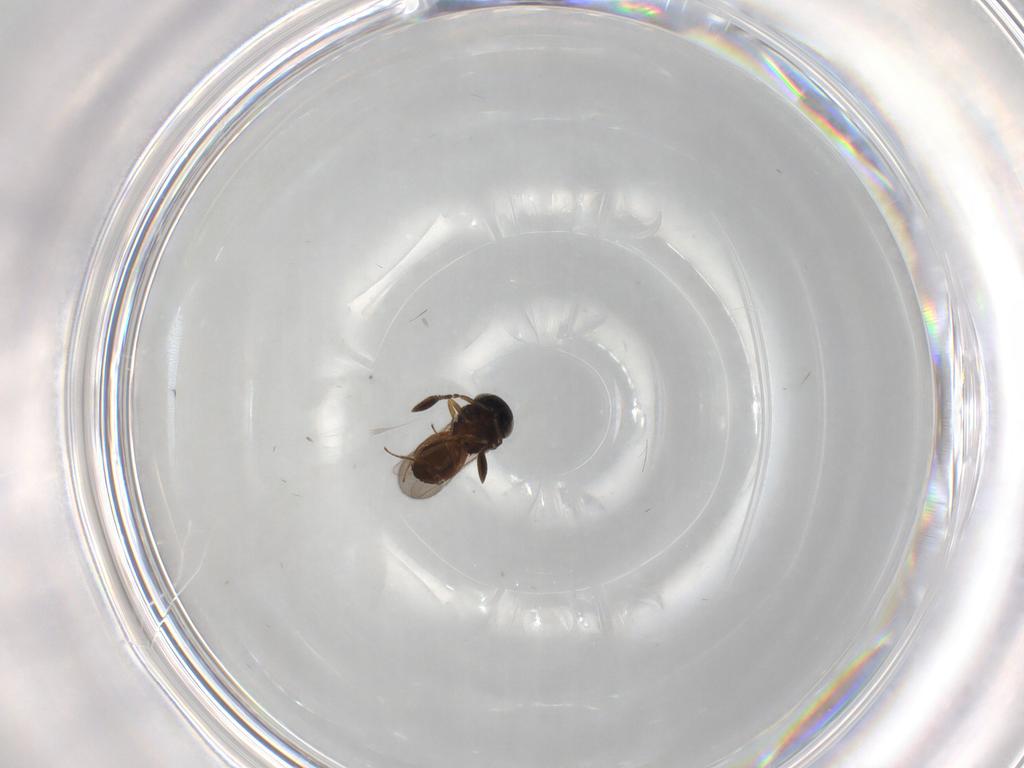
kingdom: Animalia
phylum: Arthropoda
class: Insecta
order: Hymenoptera
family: Scelionidae
